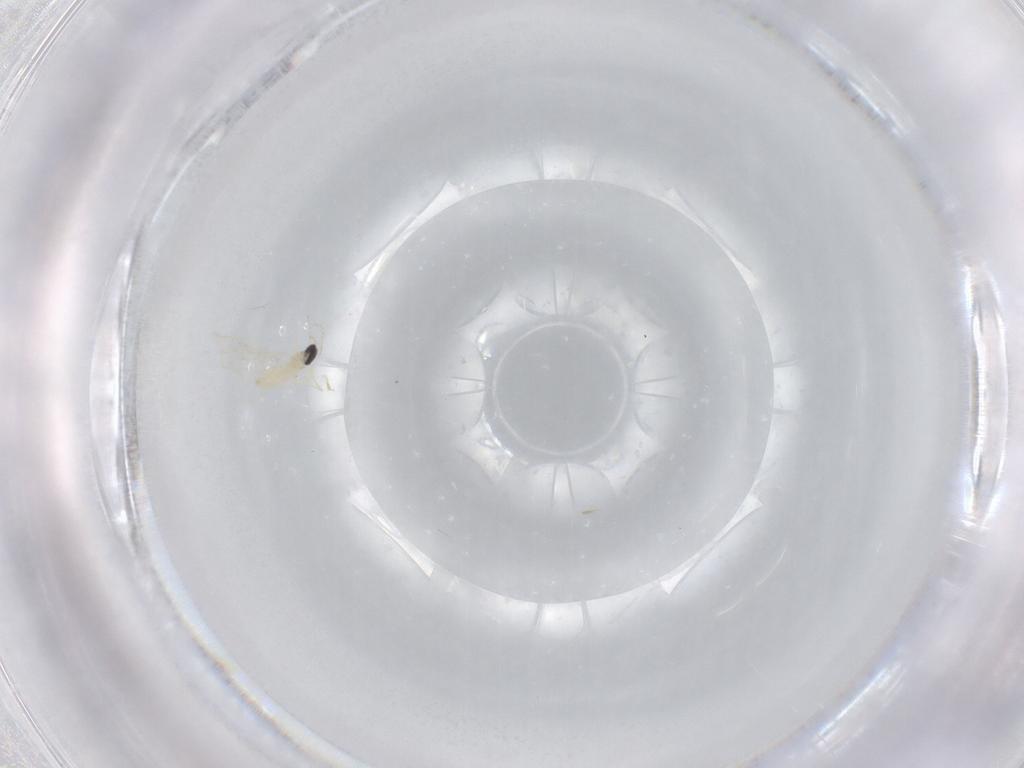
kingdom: Animalia
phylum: Arthropoda
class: Insecta
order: Diptera
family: Cecidomyiidae
